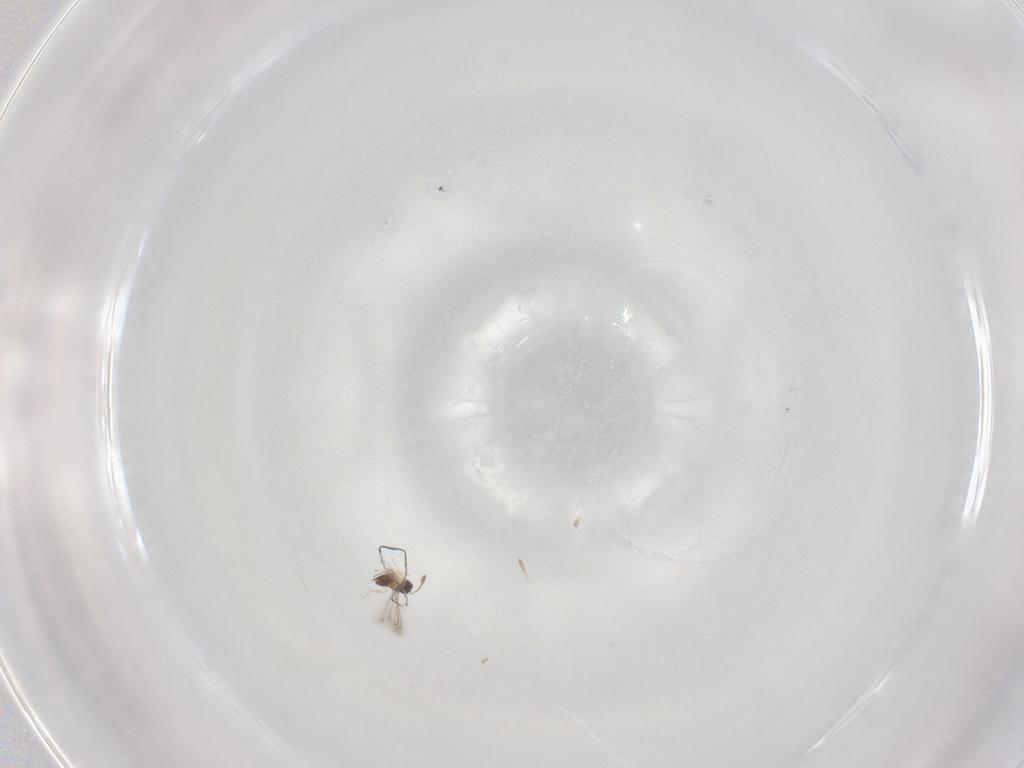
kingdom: Animalia
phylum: Arthropoda
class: Insecta
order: Hymenoptera
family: Mymaridae
